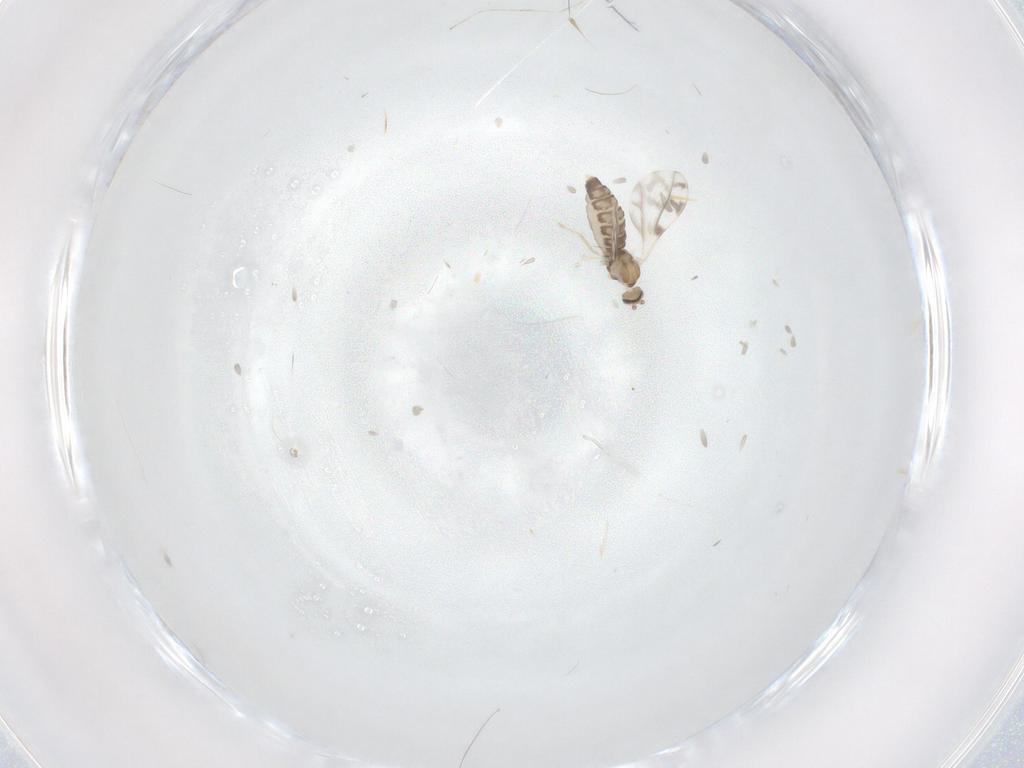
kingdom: Animalia
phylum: Arthropoda
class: Insecta
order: Diptera
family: Cecidomyiidae
